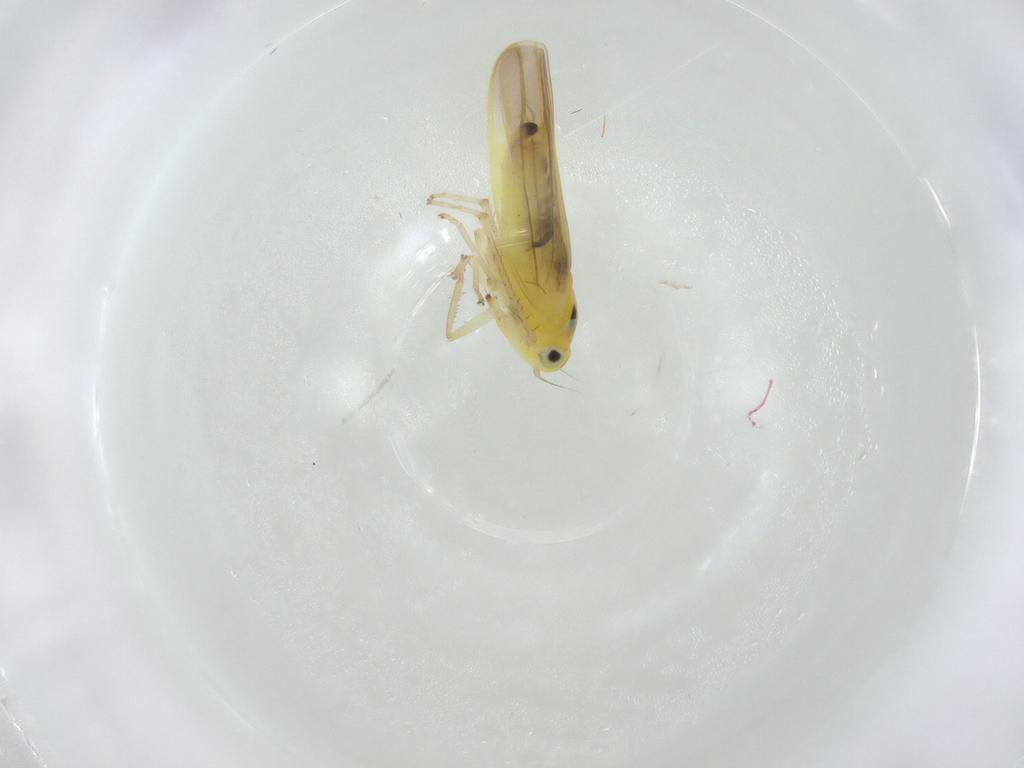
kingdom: Animalia
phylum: Arthropoda
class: Insecta
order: Hemiptera
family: Cicadellidae
